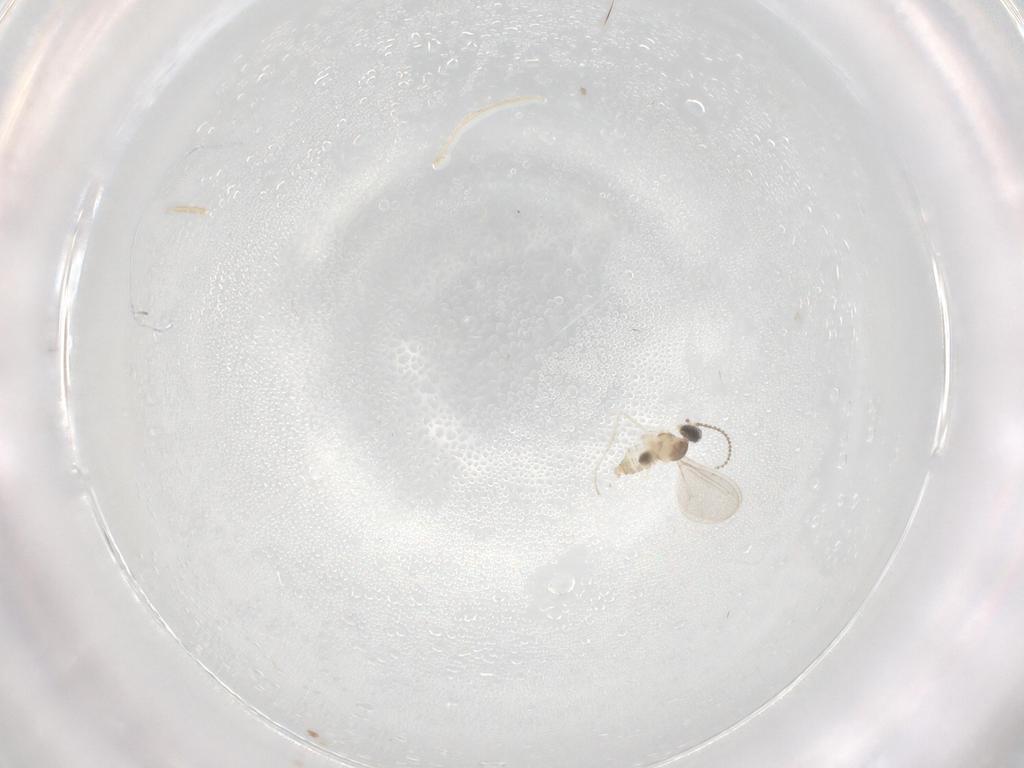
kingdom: Animalia
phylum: Arthropoda
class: Insecta
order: Diptera
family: Cecidomyiidae
